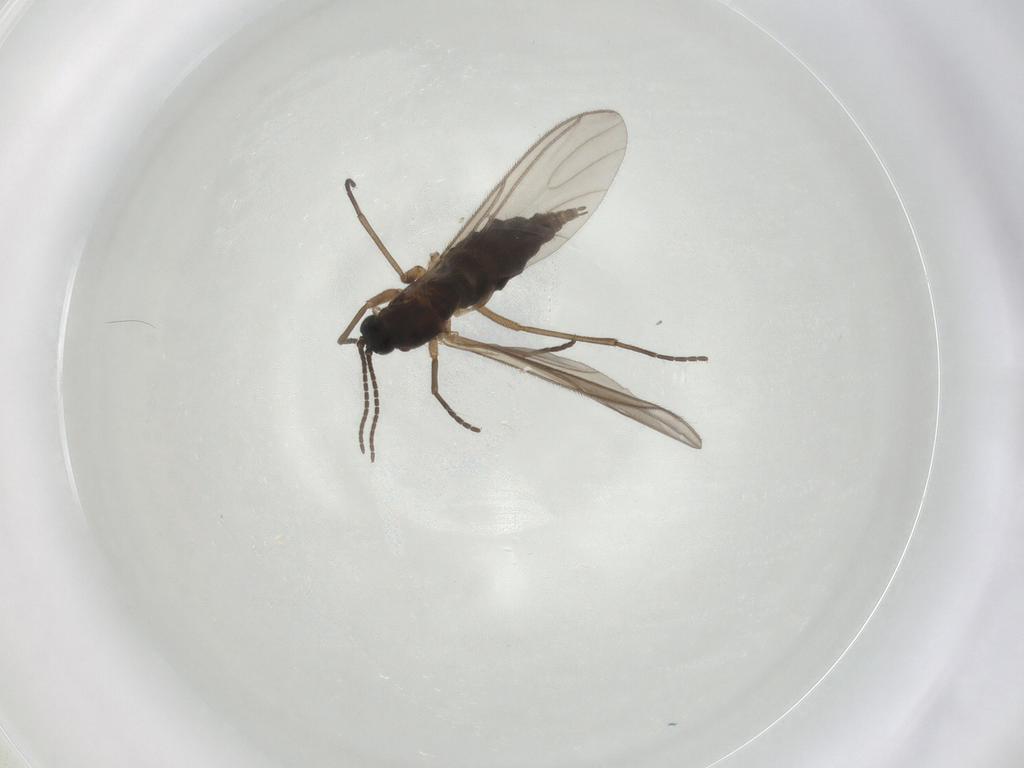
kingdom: Animalia
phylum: Arthropoda
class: Insecta
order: Diptera
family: Sciaridae
